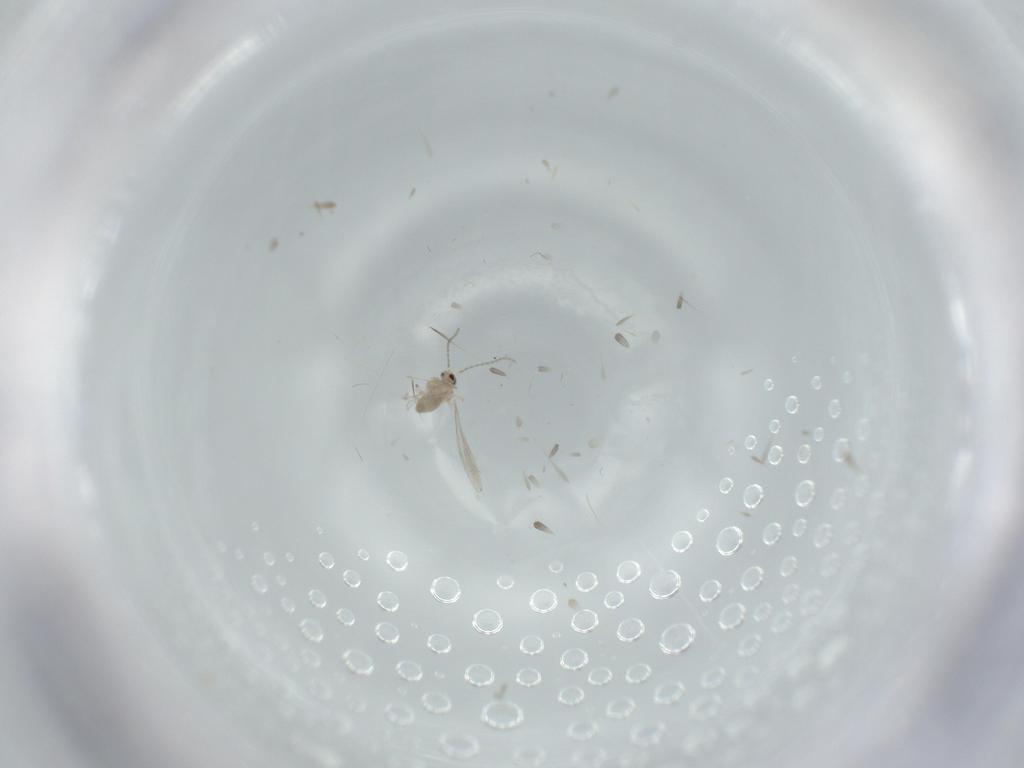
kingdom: Animalia
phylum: Arthropoda
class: Insecta
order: Diptera
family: Cecidomyiidae
